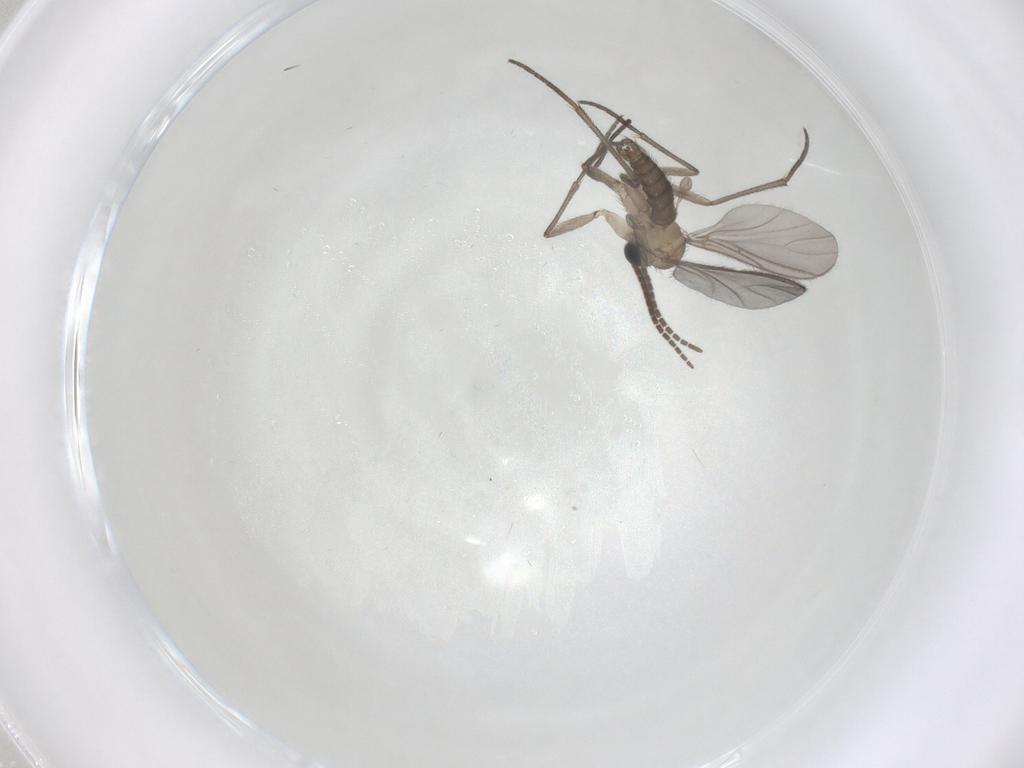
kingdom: Animalia
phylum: Arthropoda
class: Insecta
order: Diptera
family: Sciaridae
